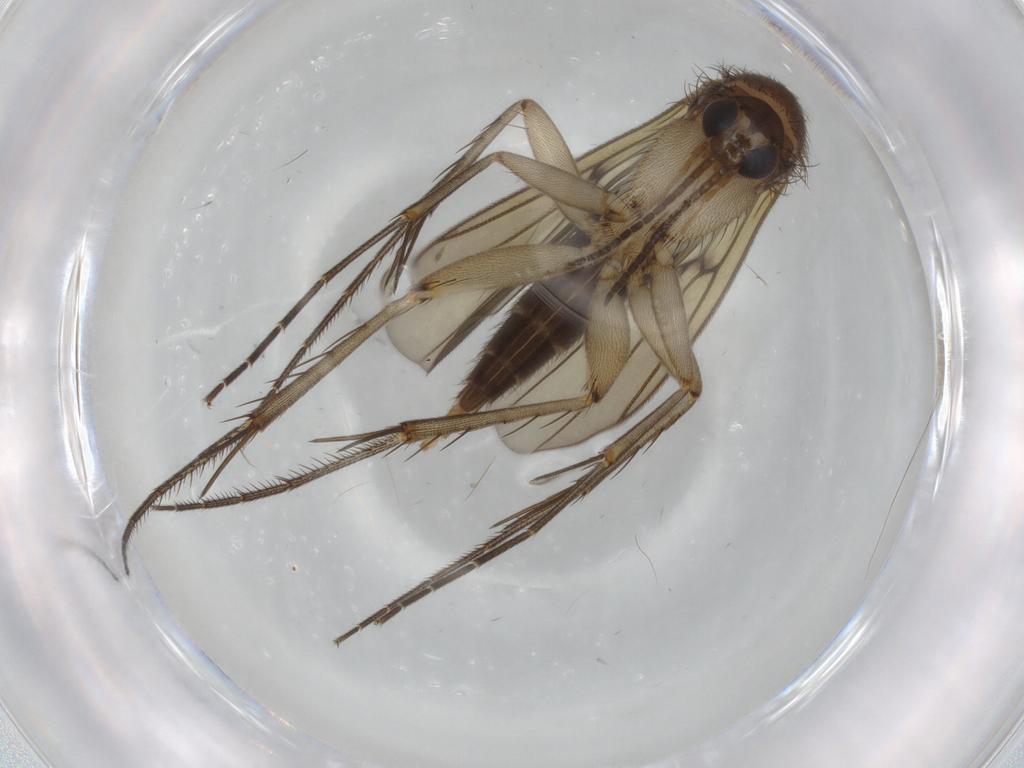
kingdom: Animalia
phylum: Arthropoda
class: Insecta
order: Diptera
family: Mycetophilidae
